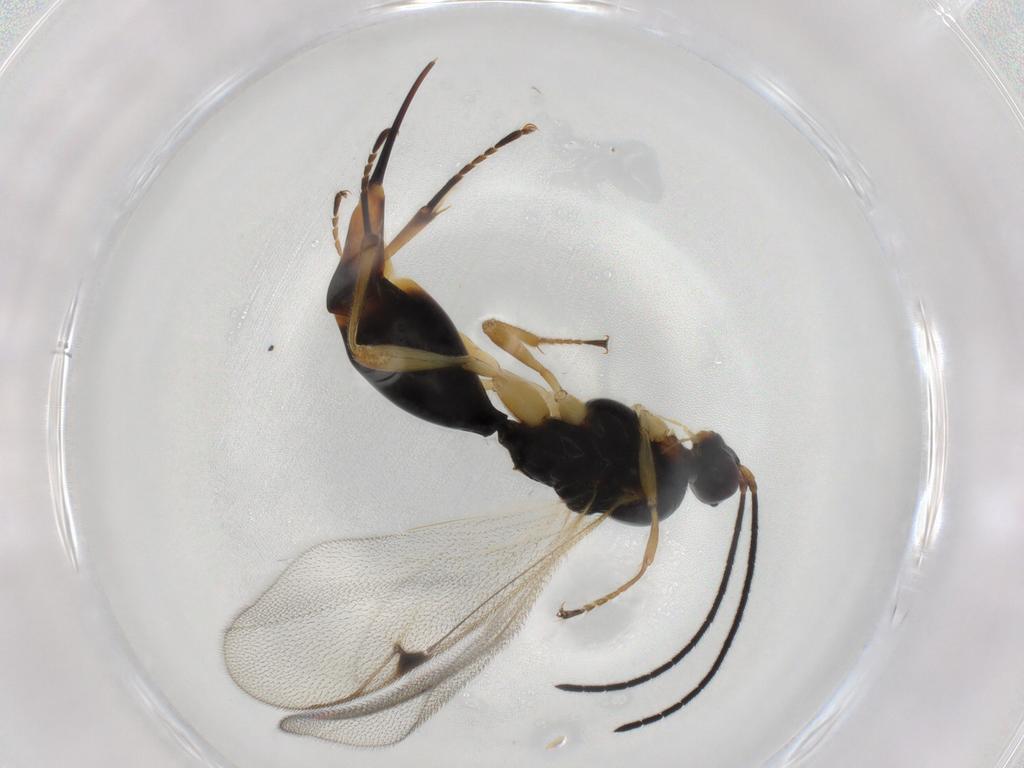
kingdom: Animalia
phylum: Arthropoda
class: Insecta
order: Hymenoptera
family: Proctotrupidae
